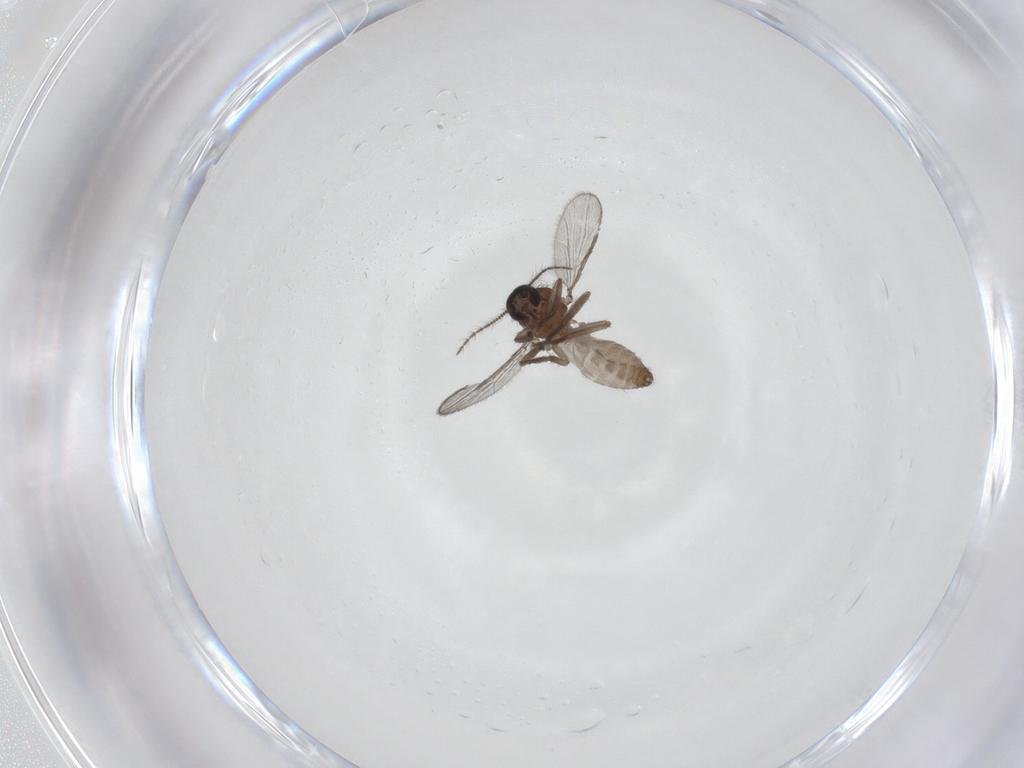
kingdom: Animalia
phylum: Arthropoda
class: Insecta
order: Diptera
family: Ceratopogonidae
